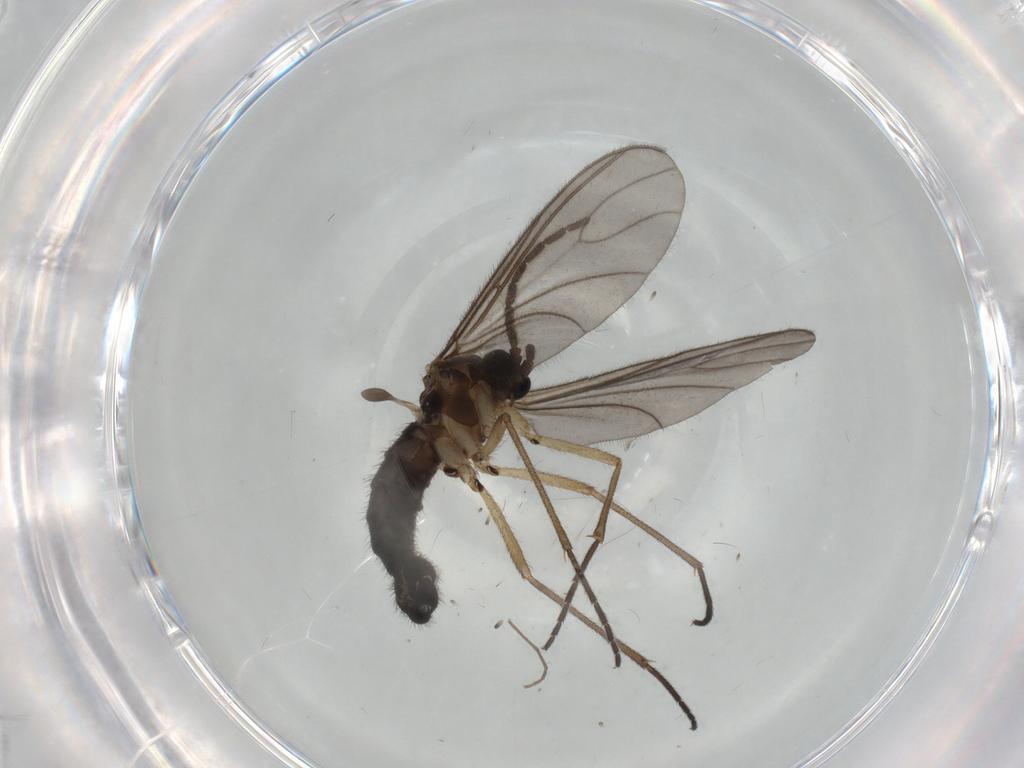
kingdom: Animalia
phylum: Arthropoda
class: Insecta
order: Diptera
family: Sciaridae
